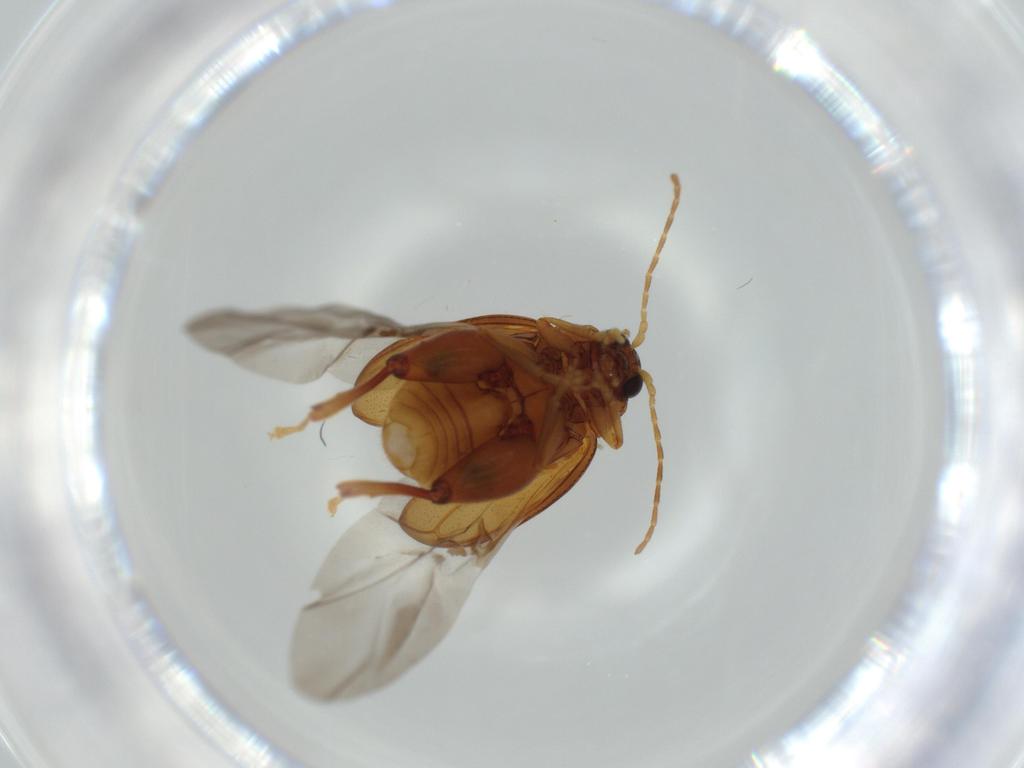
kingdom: Animalia
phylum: Arthropoda
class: Insecta
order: Coleoptera
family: Chrysomelidae
